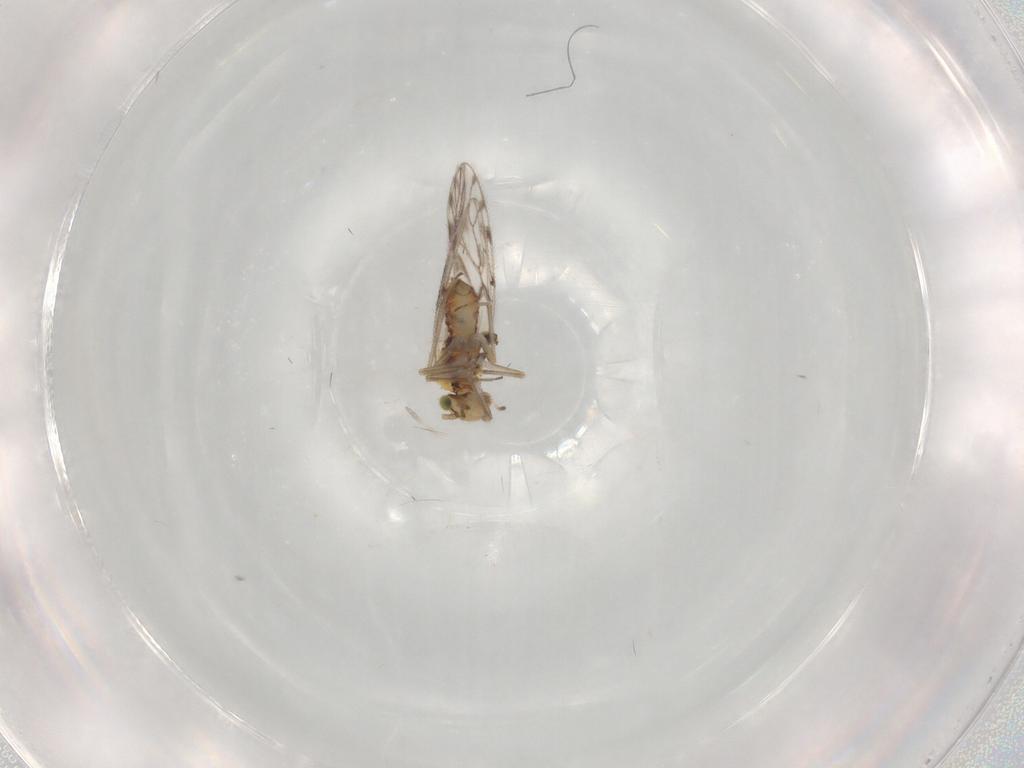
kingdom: Animalia
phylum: Arthropoda
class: Insecta
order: Psocodea
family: Trichopsocidae
